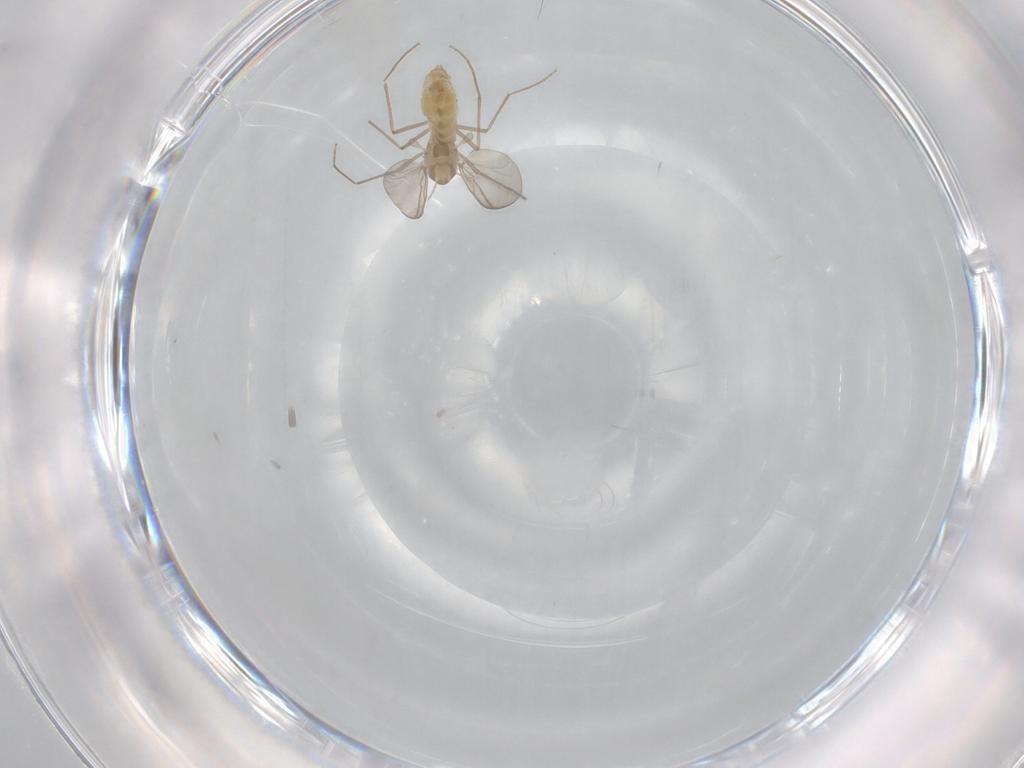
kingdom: Animalia
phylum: Arthropoda
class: Insecta
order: Diptera
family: Chironomidae
